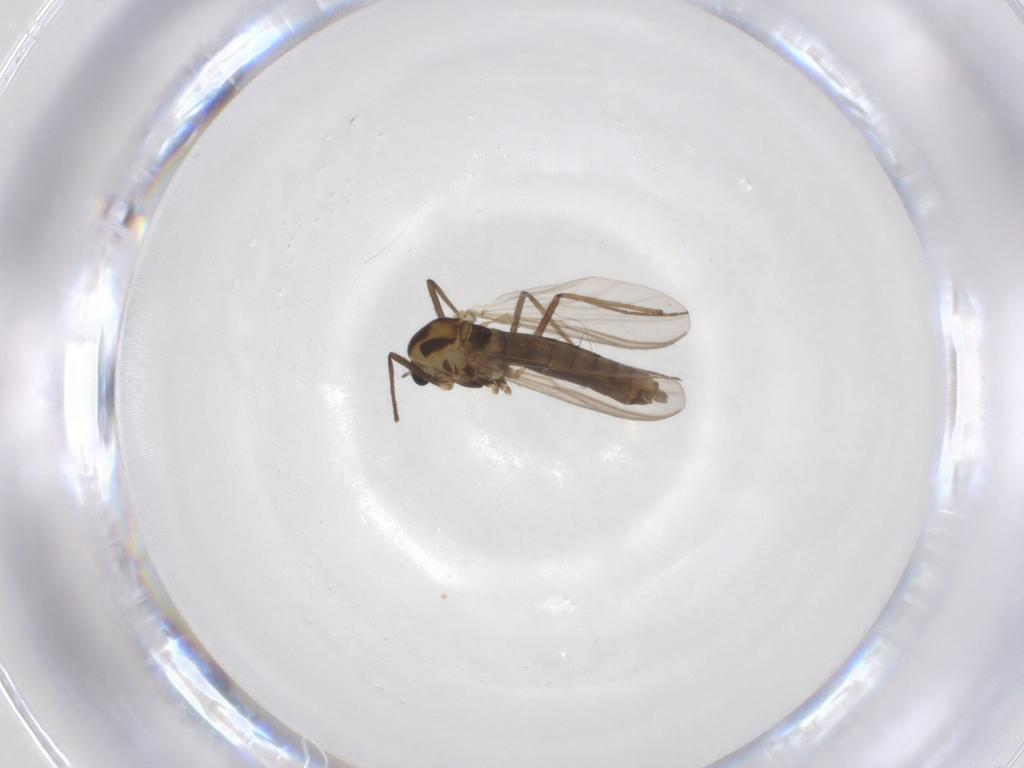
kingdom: Animalia
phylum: Arthropoda
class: Insecta
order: Diptera
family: Chironomidae
